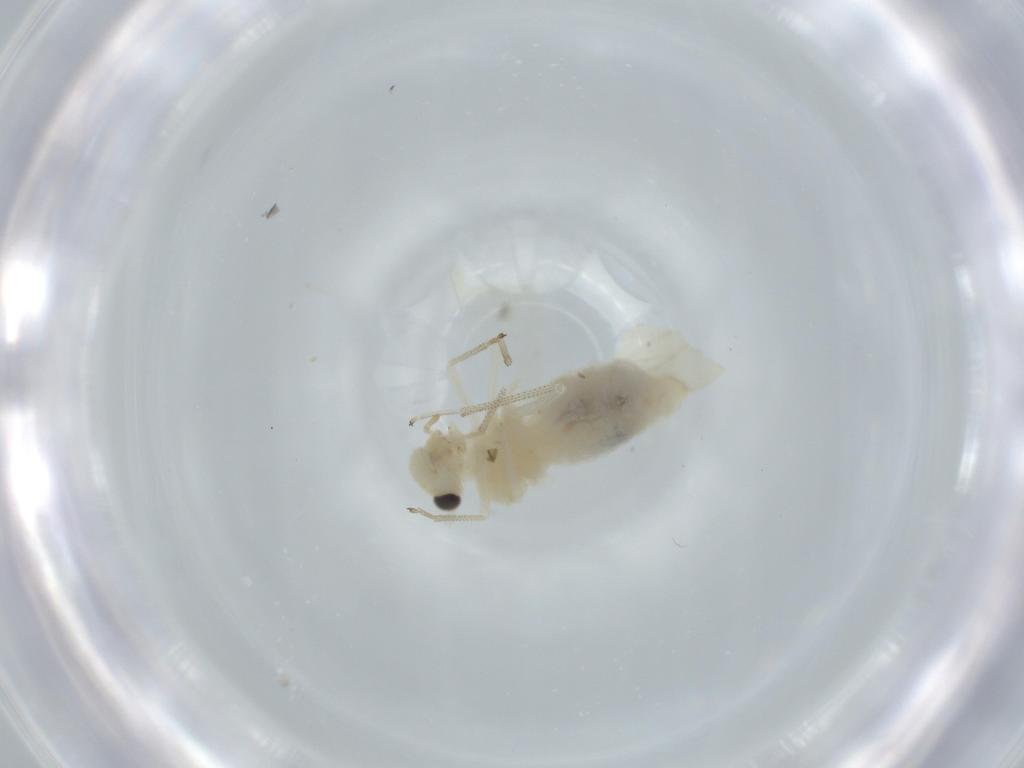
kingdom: Animalia
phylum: Arthropoda
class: Insecta
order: Psocodea
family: Caeciliusidae
